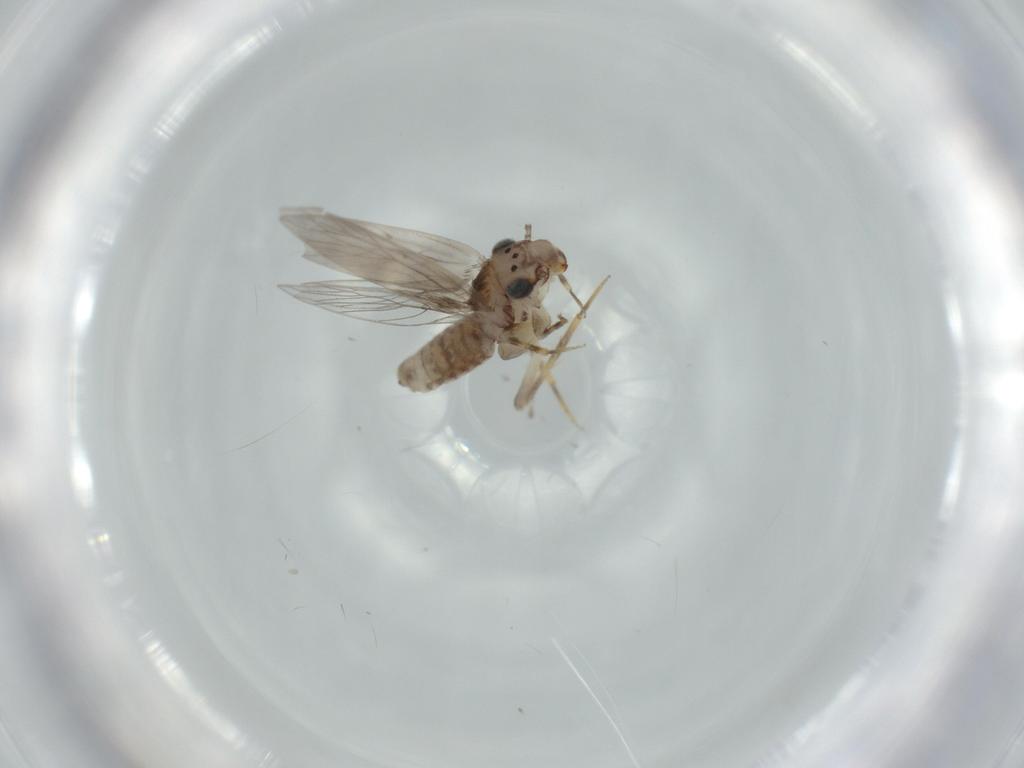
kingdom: Animalia
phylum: Arthropoda
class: Insecta
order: Psocodea
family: Lepidopsocidae
